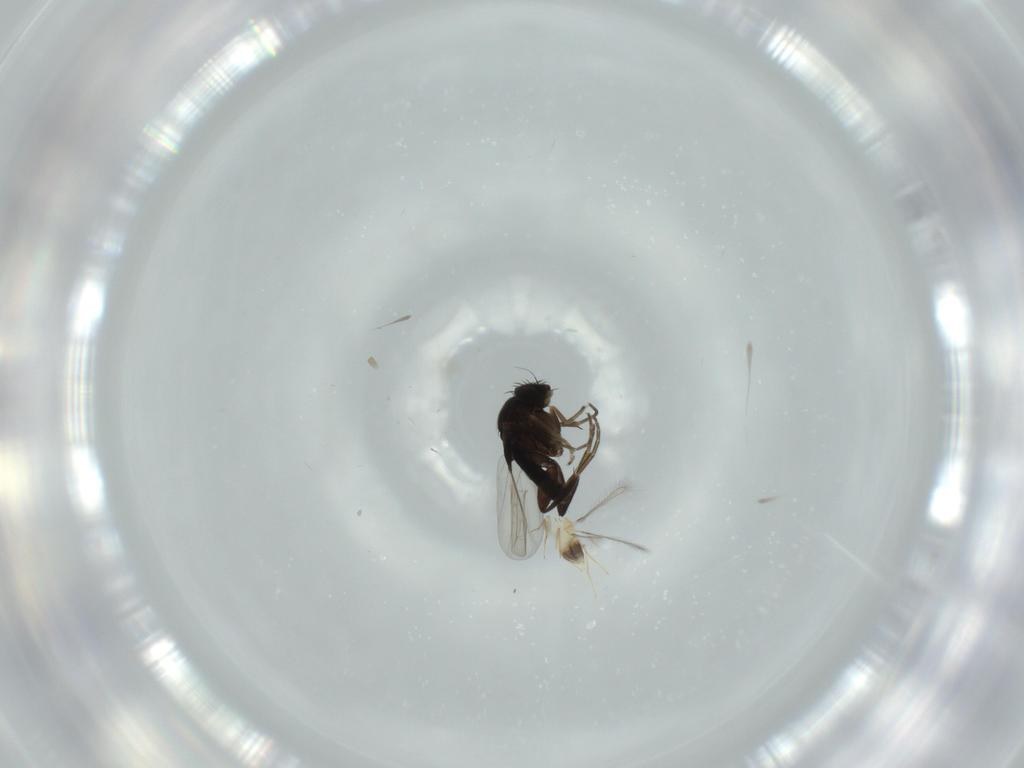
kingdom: Animalia
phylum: Arthropoda
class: Insecta
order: Diptera
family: Phoridae
